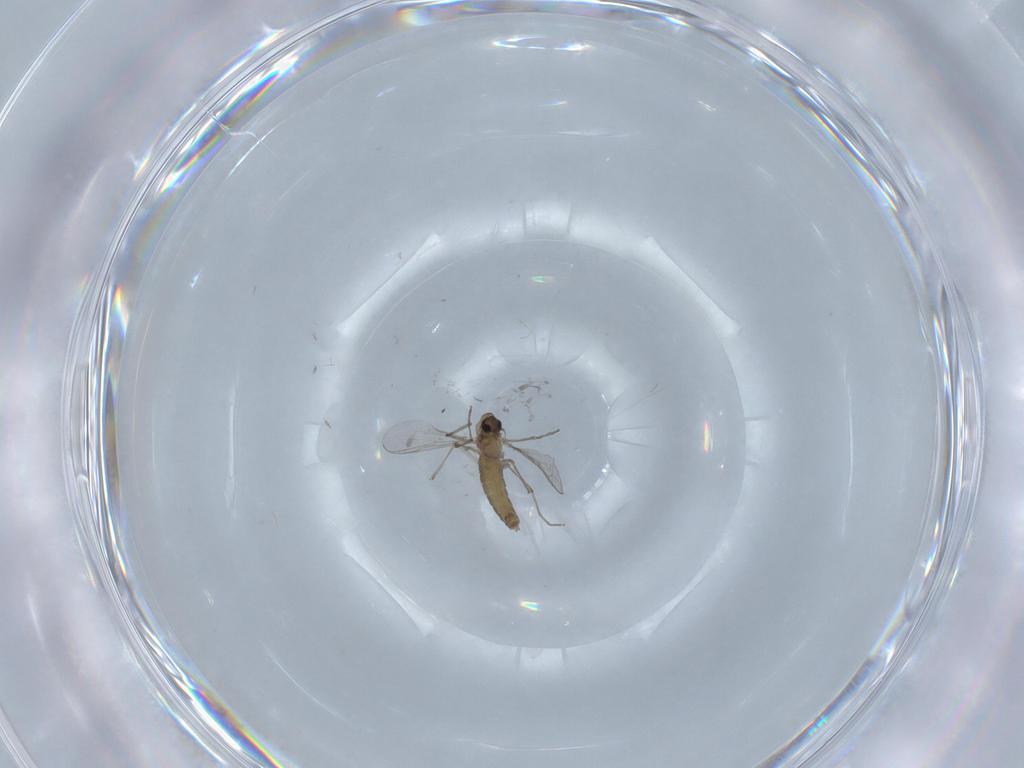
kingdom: Animalia
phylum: Arthropoda
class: Insecta
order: Diptera
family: Chironomidae
